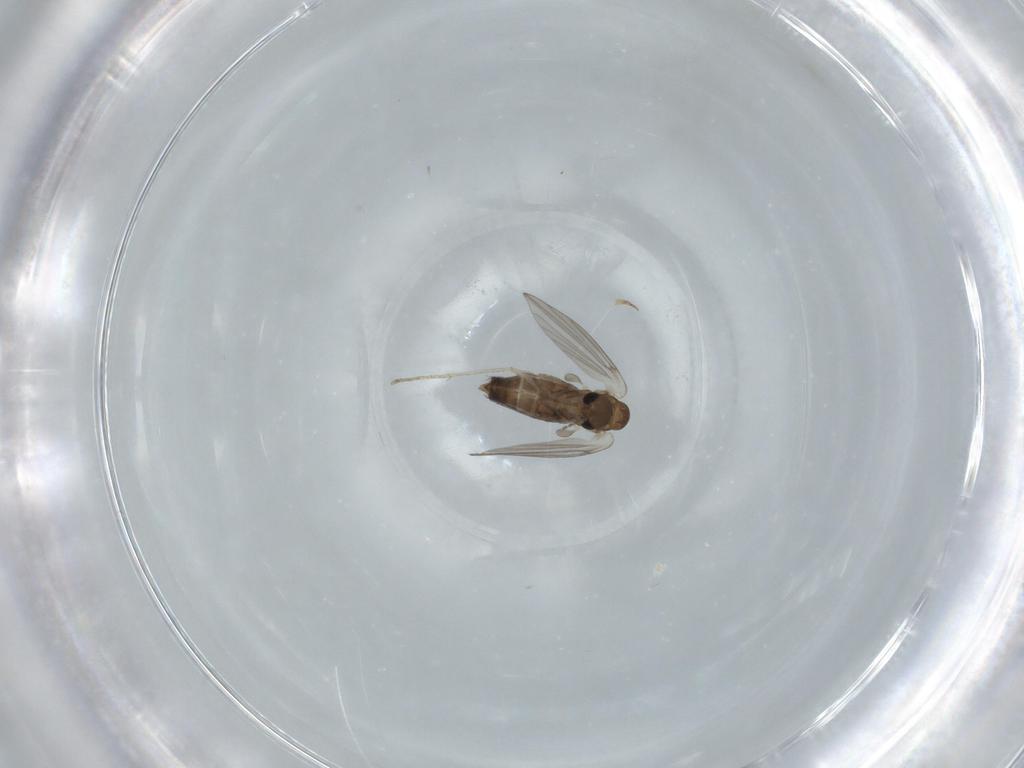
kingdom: Animalia
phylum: Arthropoda
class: Insecta
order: Diptera
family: Psychodidae
